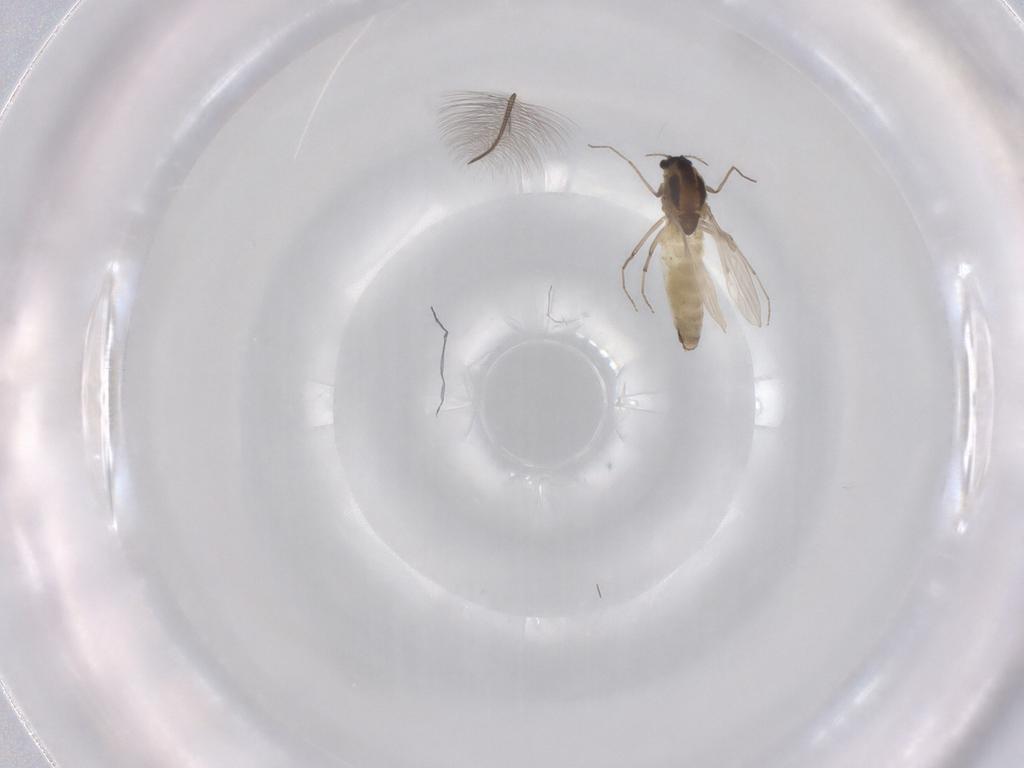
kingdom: Animalia
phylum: Arthropoda
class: Insecta
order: Diptera
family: Chironomidae
